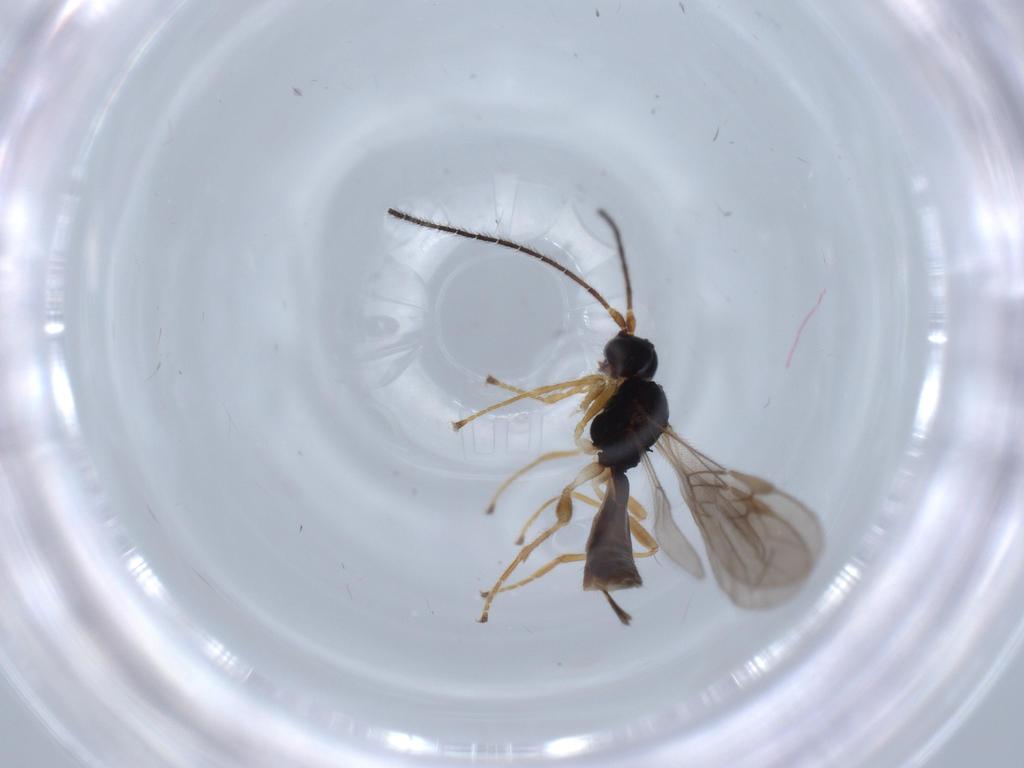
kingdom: Animalia
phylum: Arthropoda
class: Insecta
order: Hymenoptera
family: Scelionidae
